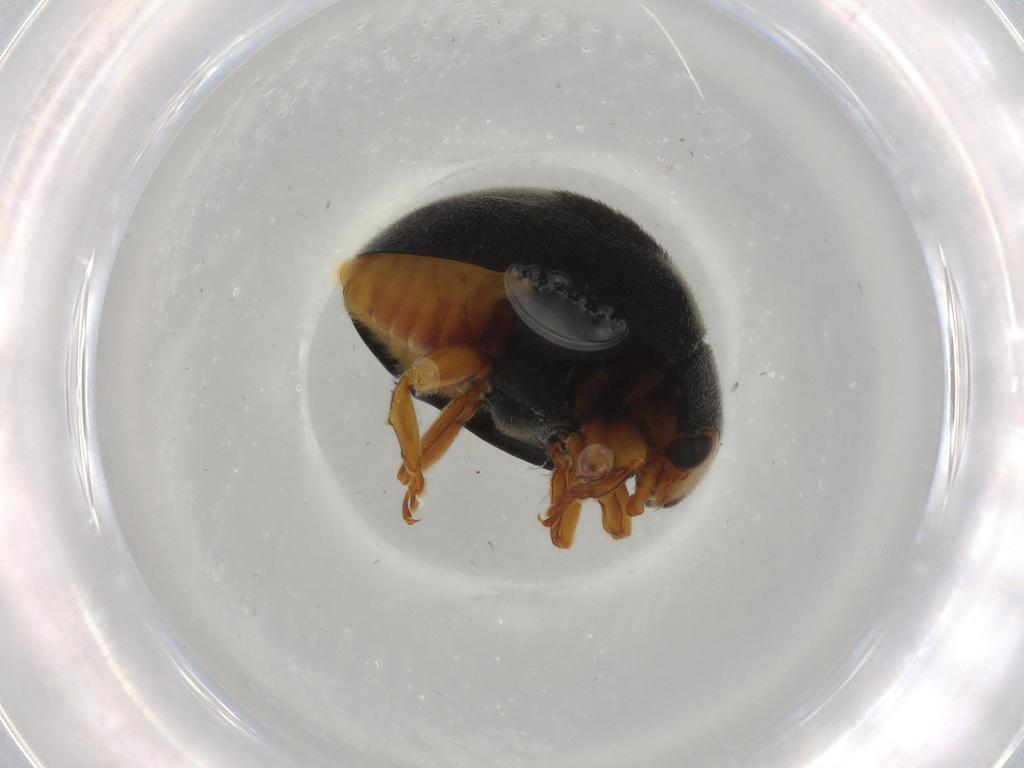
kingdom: Animalia
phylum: Arthropoda
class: Insecta
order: Coleoptera
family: Coccinellidae
